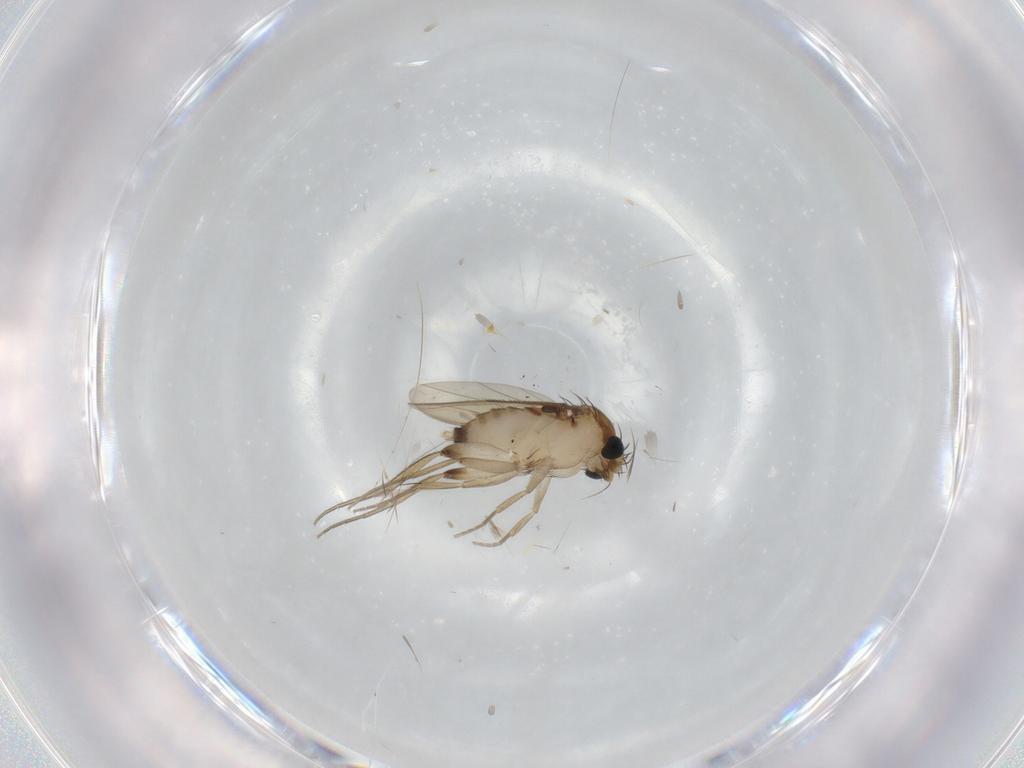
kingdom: Animalia
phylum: Arthropoda
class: Insecta
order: Diptera
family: Phoridae
